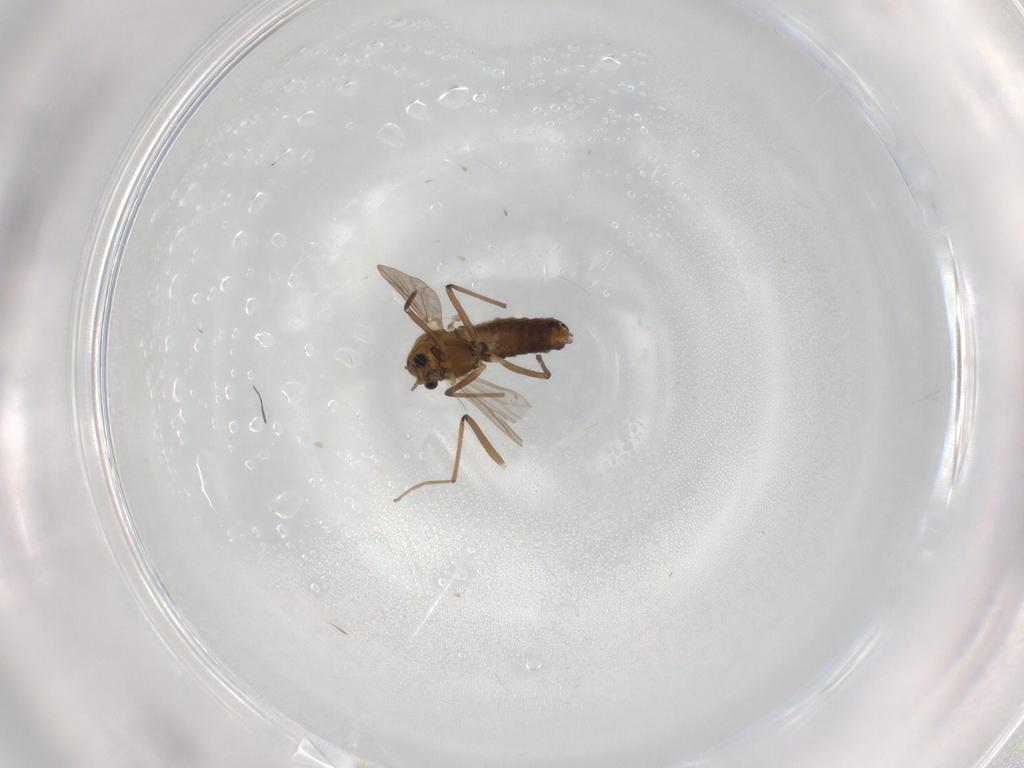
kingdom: Animalia
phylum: Arthropoda
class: Insecta
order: Diptera
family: Chironomidae
